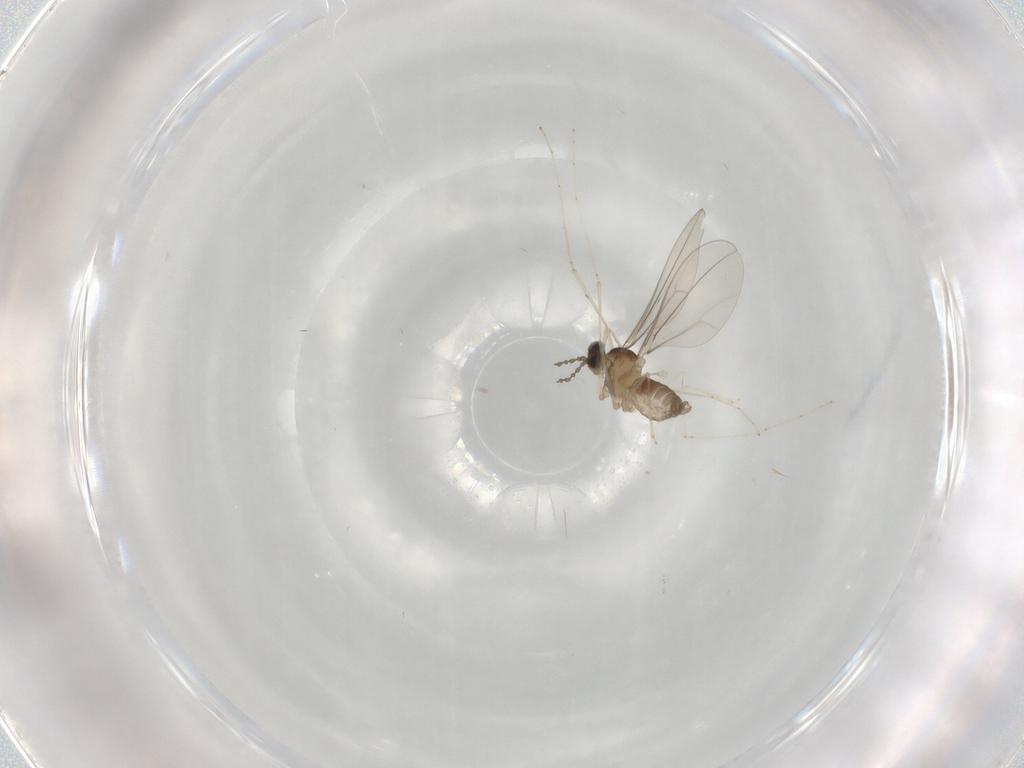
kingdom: Animalia
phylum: Arthropoda
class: Insecta
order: Diptera
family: Cecidomyiidae
